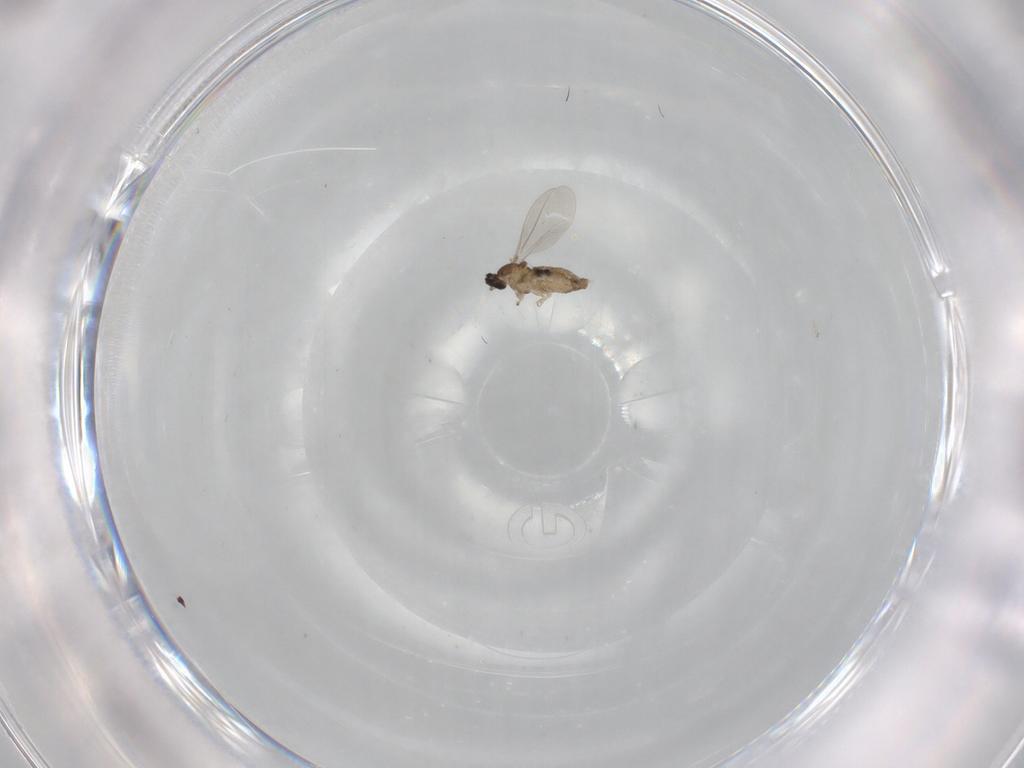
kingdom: Animalia
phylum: Arthropoda
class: Insecta
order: Diptera
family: Cecidomyiidae
